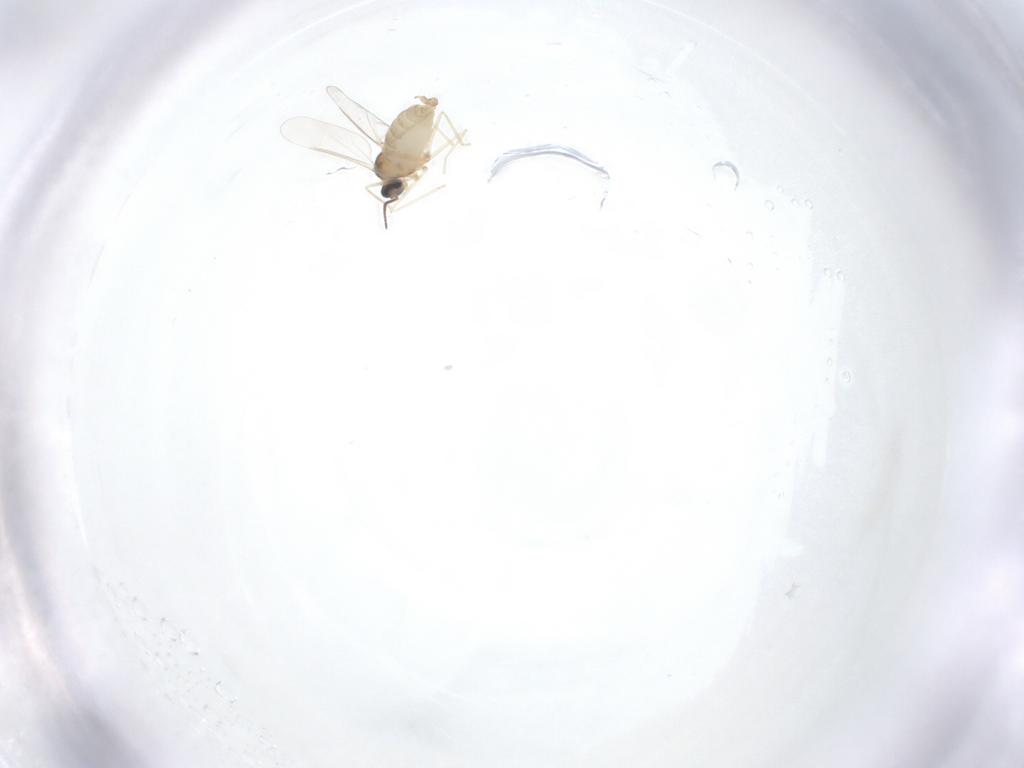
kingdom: Animalia
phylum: Arthropoda
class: Insecta
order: Diptera
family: Cecidomyiidae
